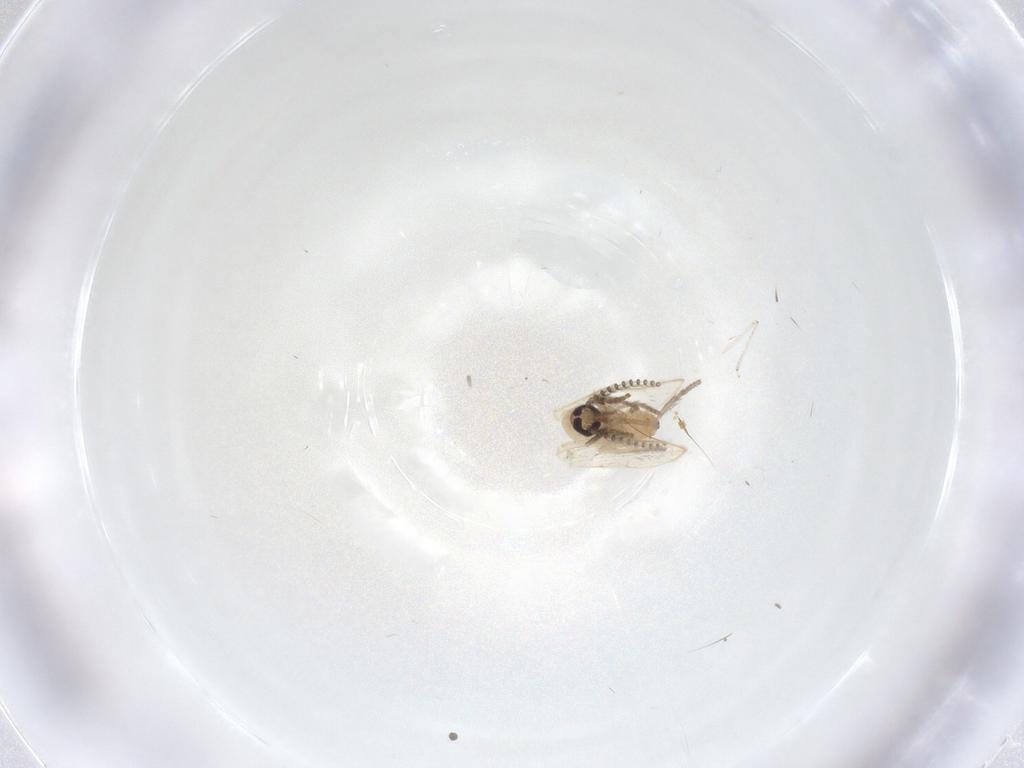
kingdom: Animalia
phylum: Arthropoda
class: Insecta
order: Diptera
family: Psychodidae
